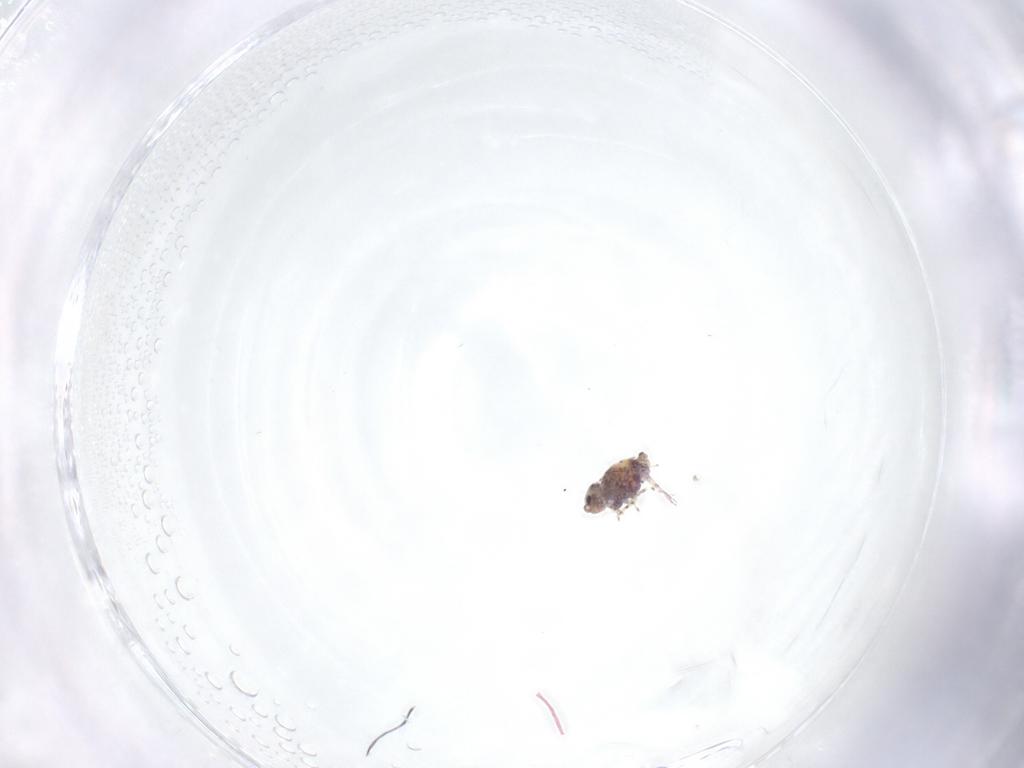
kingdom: Animalia
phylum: Arthropoda
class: Collembola
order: Symphypleona
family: Bourletiellidae
